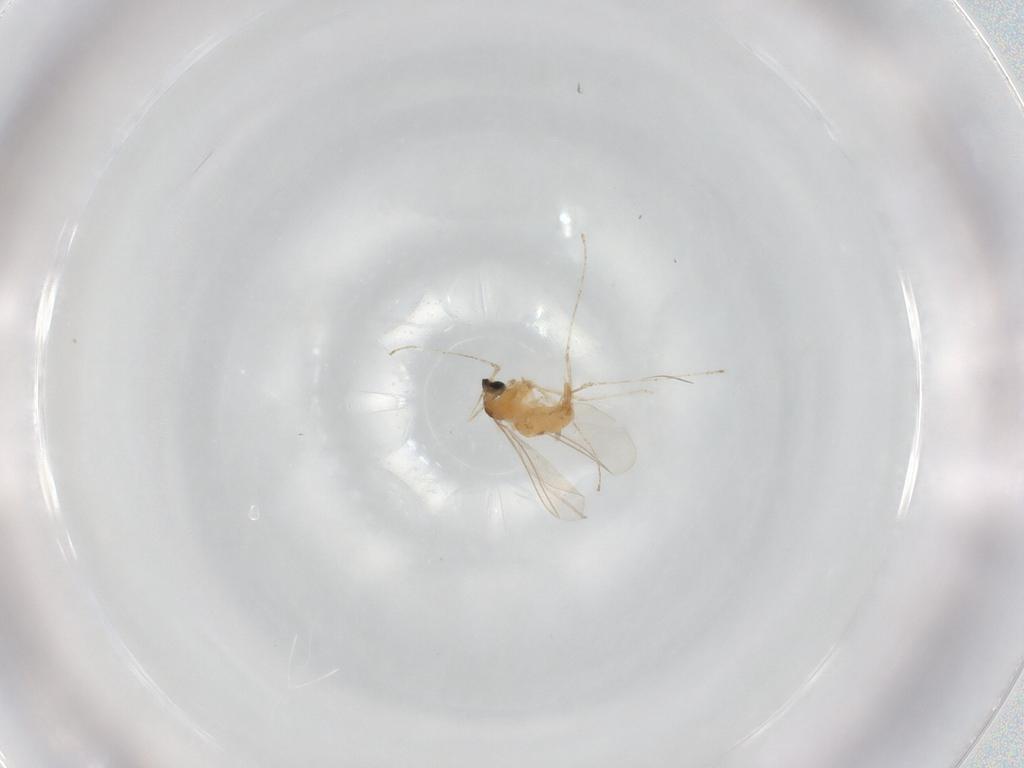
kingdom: Animalia
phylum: Arthropoda
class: Insecta
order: Diptera
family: Cecidomyiidae
